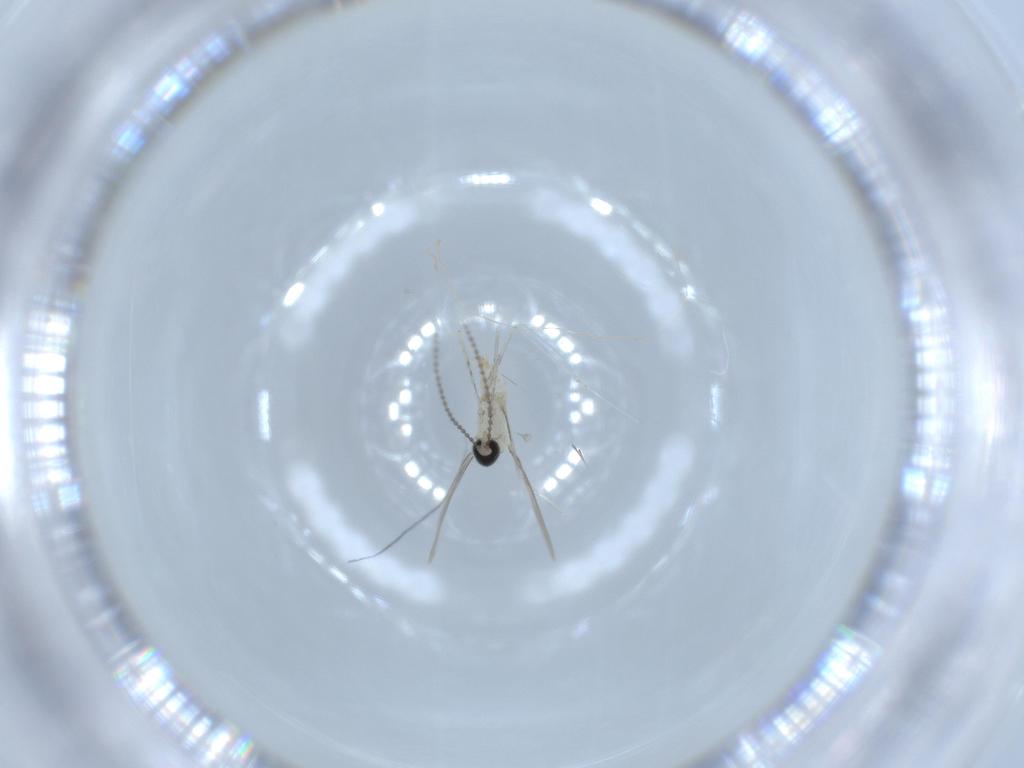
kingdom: Animalia
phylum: Arthropoda
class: Insecta
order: Diptera
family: Cecidomyiidae
